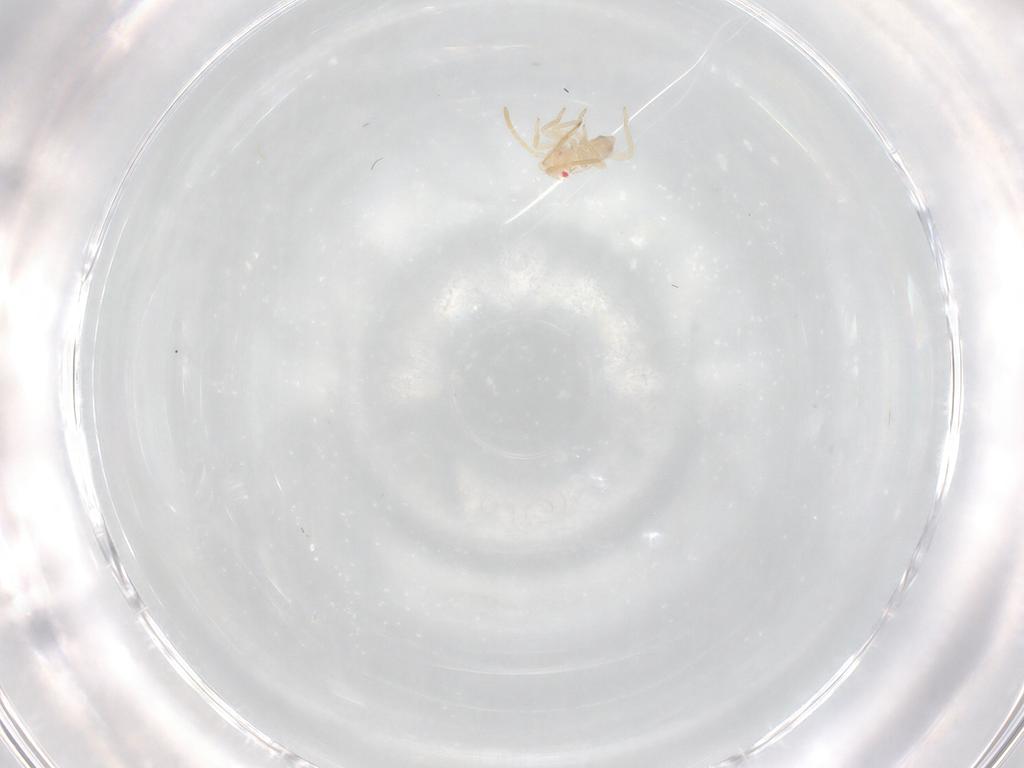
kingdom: Animalia
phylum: Arthropoda
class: Insecta
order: Hemiptera
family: Miridae
